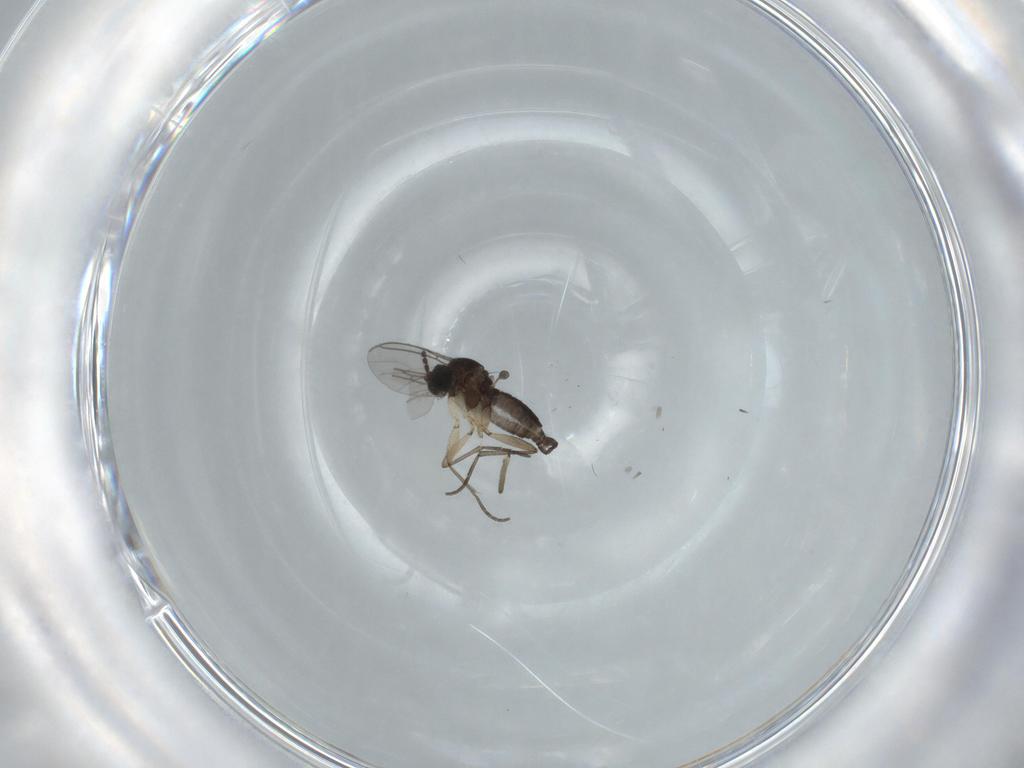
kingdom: Animalia
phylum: Arthropoda
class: Insecta
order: Diptera
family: Sciaridae
